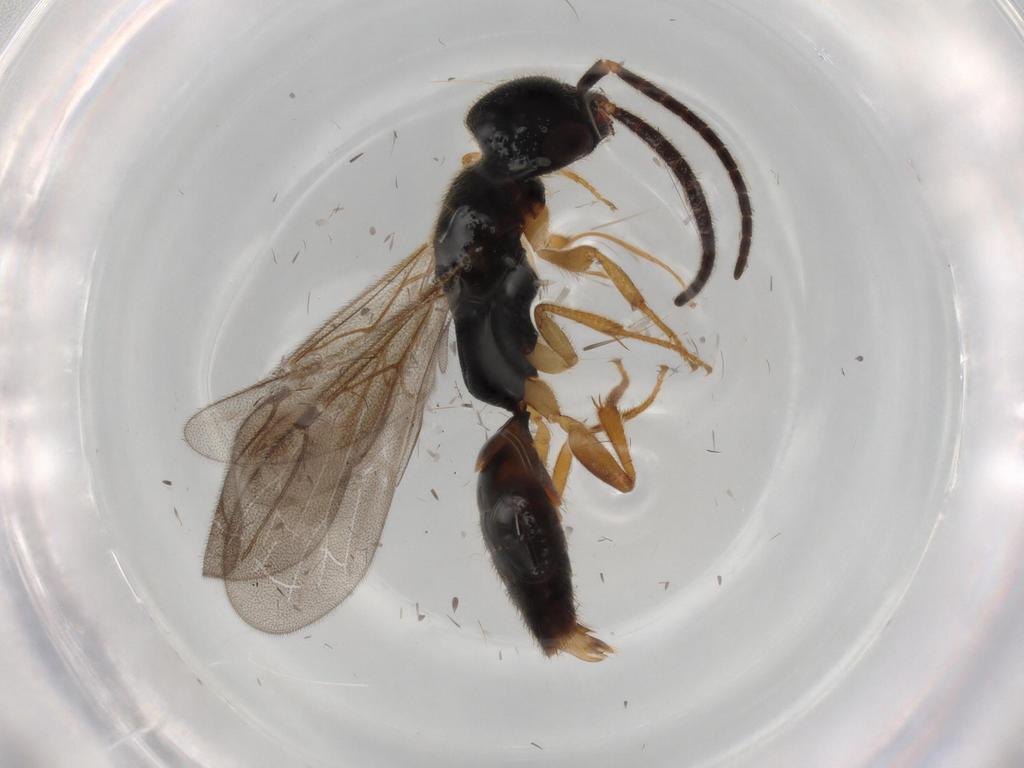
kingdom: Animalia
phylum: Arthropoda
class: Insecta
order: Hymenoptera
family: Bethylidae
